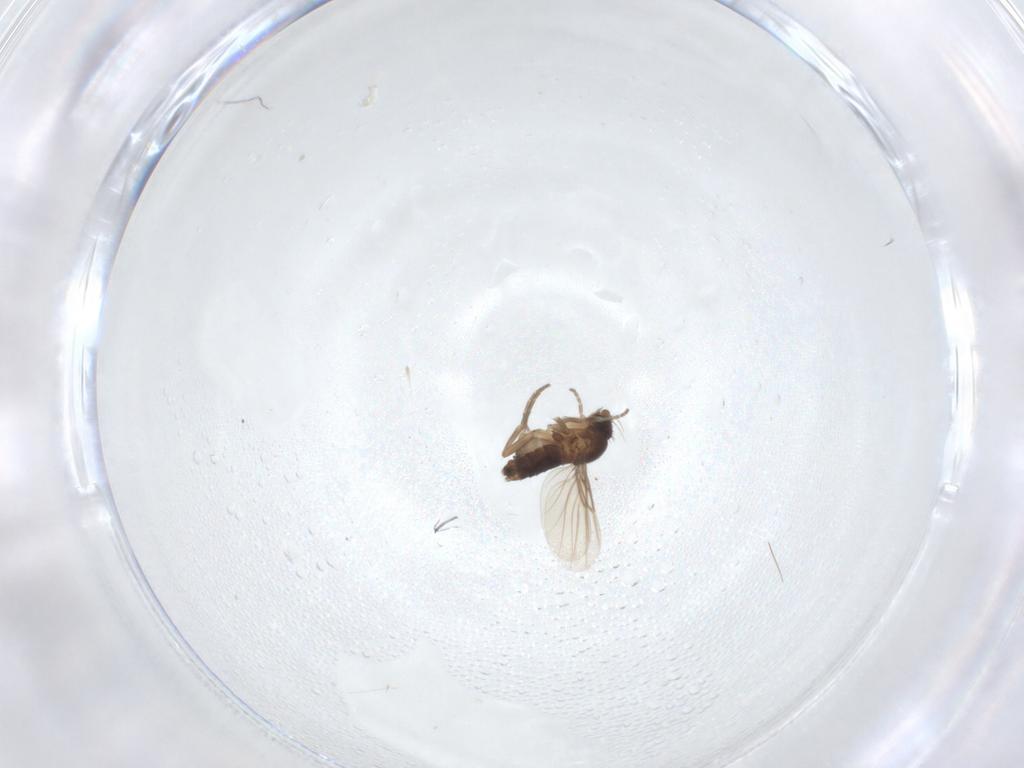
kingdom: Animalia
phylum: Arthropoda
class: Insecta
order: Diptera
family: Phoridae
